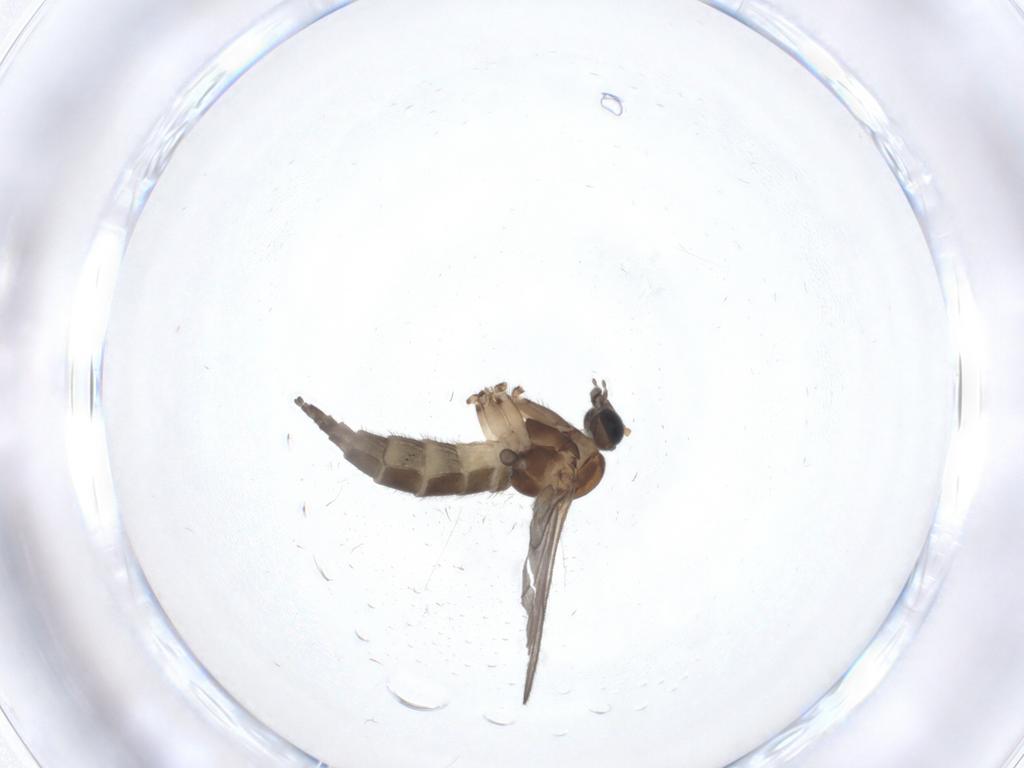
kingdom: Animalia
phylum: Arthropoda
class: Insecta
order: Diptera
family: Sciaridae
